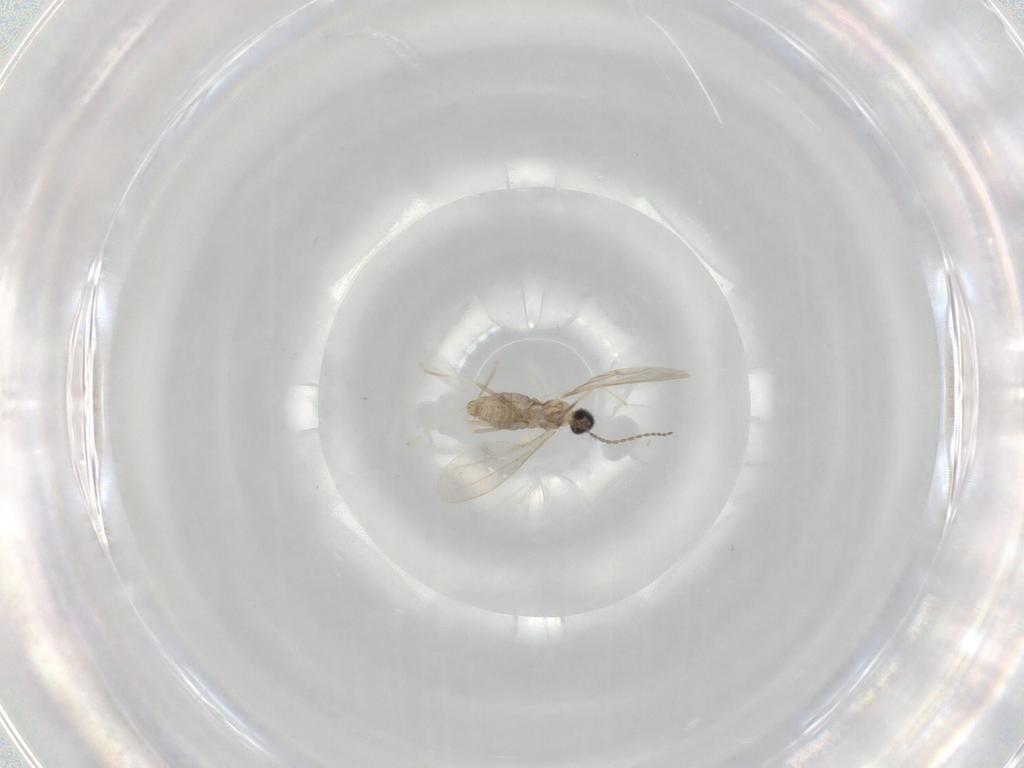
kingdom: Animalia
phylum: Arthropoda
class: Insecta
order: Diptera
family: Cecidomyiidae
